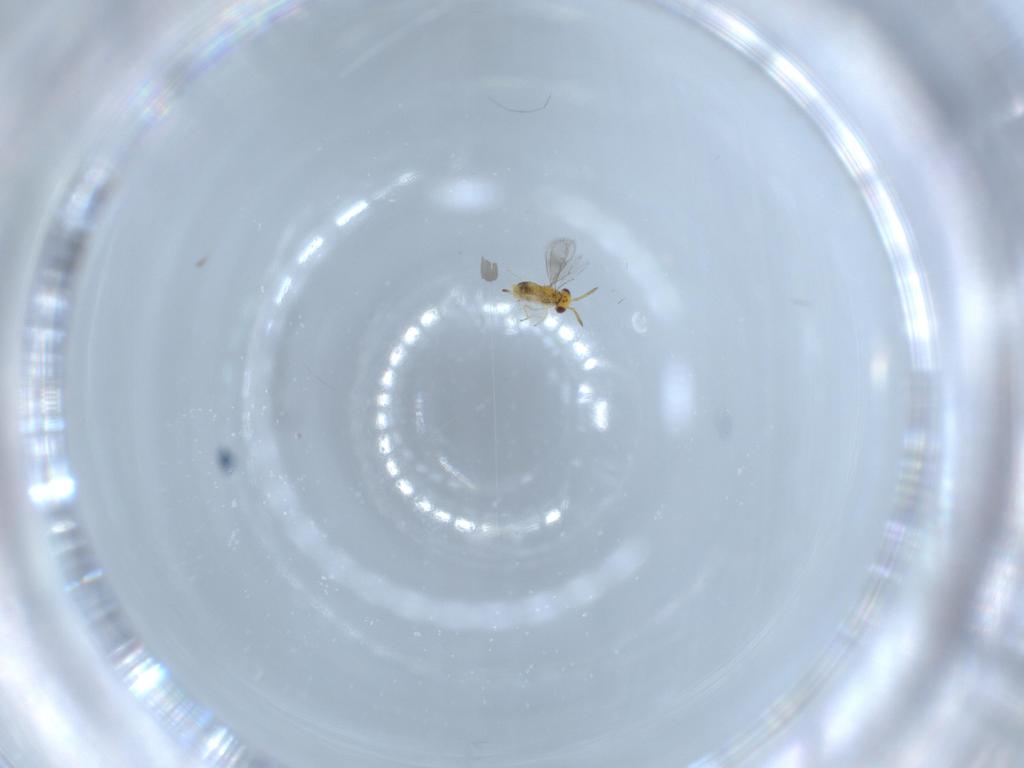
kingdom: Animalia
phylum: Arthropoda
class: Insecta
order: Hymenoptera
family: Aphelinidae
